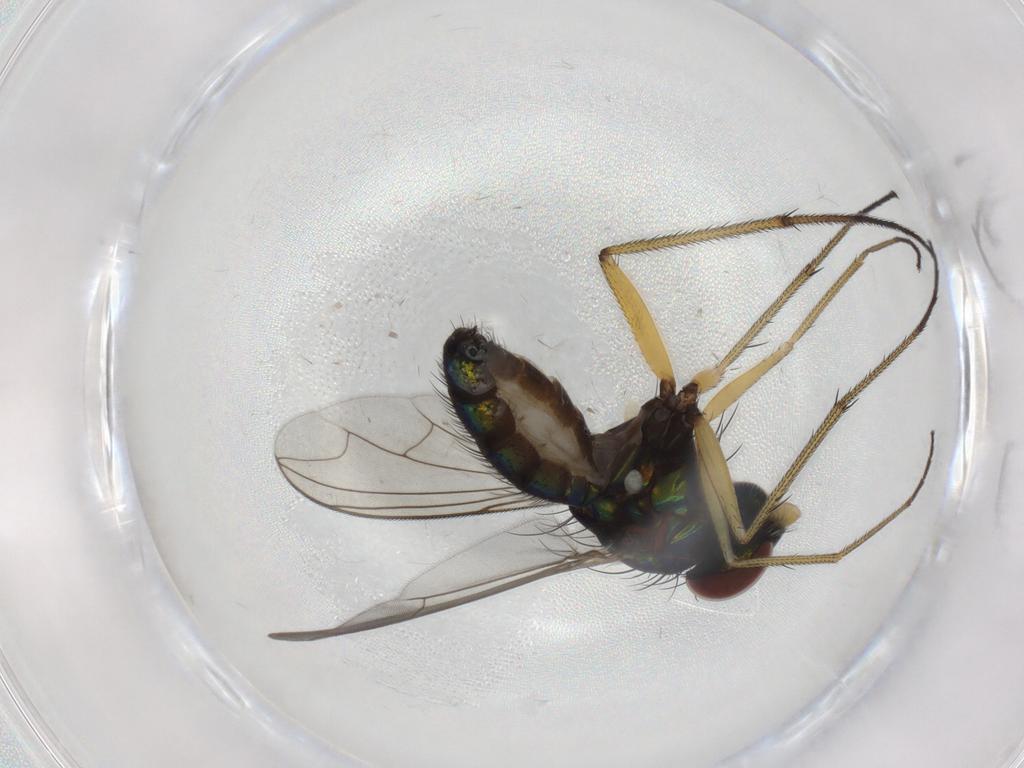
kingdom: Animalia
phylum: Arthropoda
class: Insecta
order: Diptera
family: Dolichopodidae
